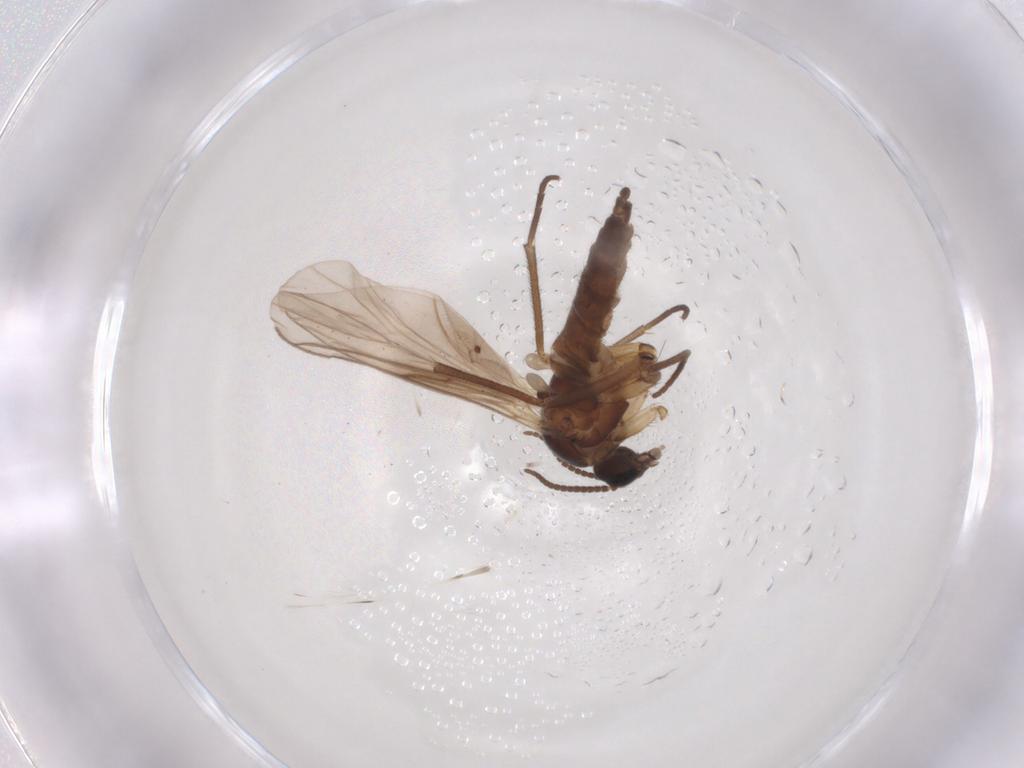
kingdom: Animalia
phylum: Arthropoda
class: Insecta
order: Diptera
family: Sciaridae
